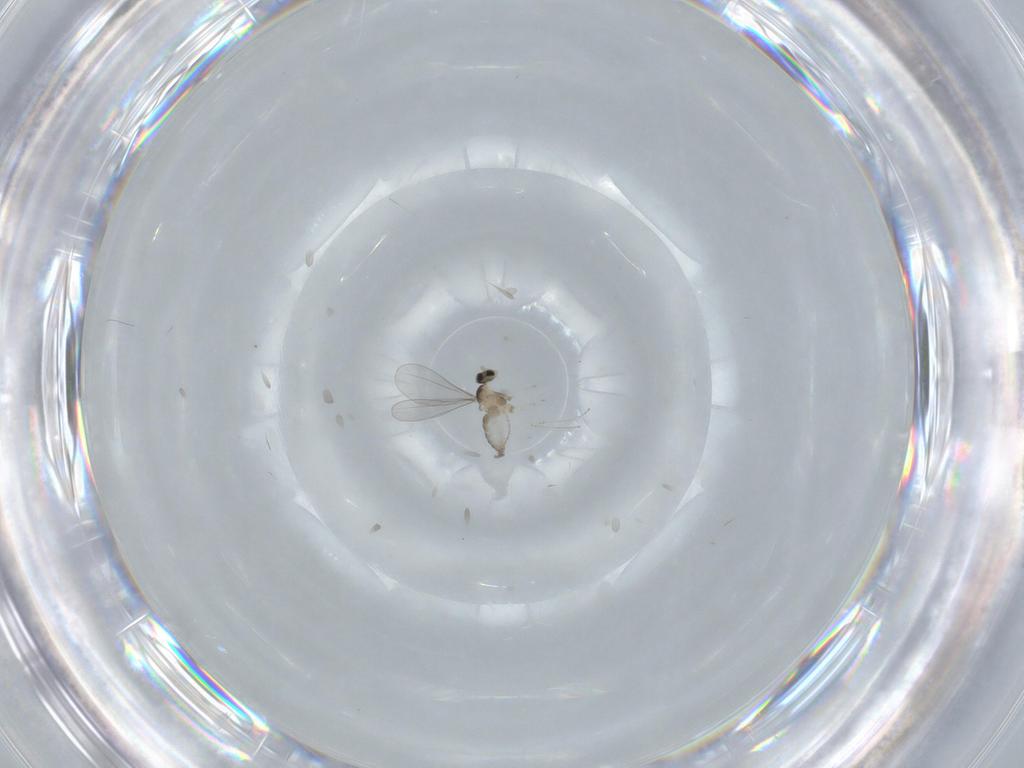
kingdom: Animalia
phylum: Arthropoda
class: Insecta
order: Diptera
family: Cecidomyiidae
